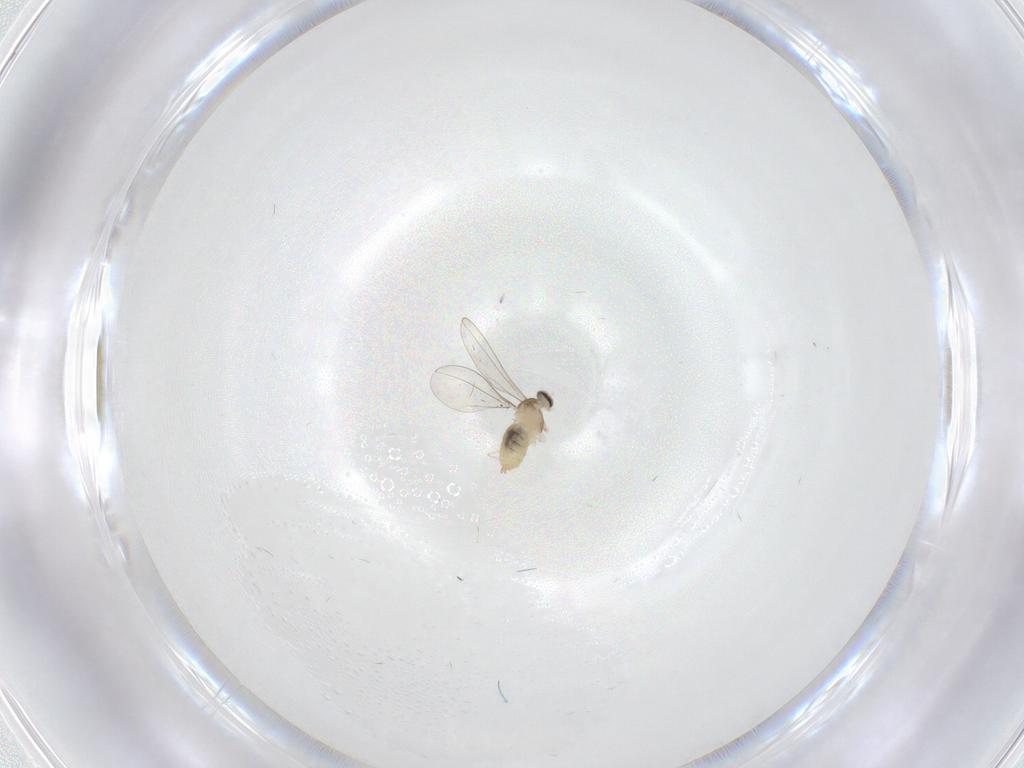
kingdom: Animalia
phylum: Arthropoda
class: Insecta
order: Diptera
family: Cecidomyiidae
